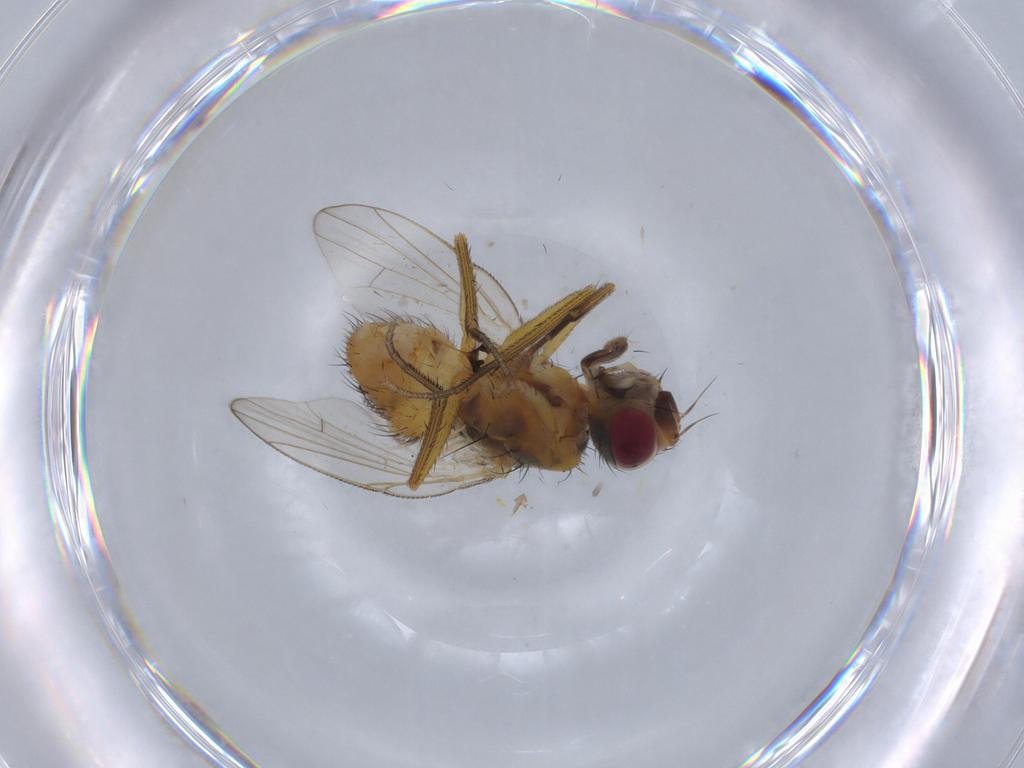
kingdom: Animalia
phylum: Arthropoda
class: Insecta
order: Diptera
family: Muscidae
